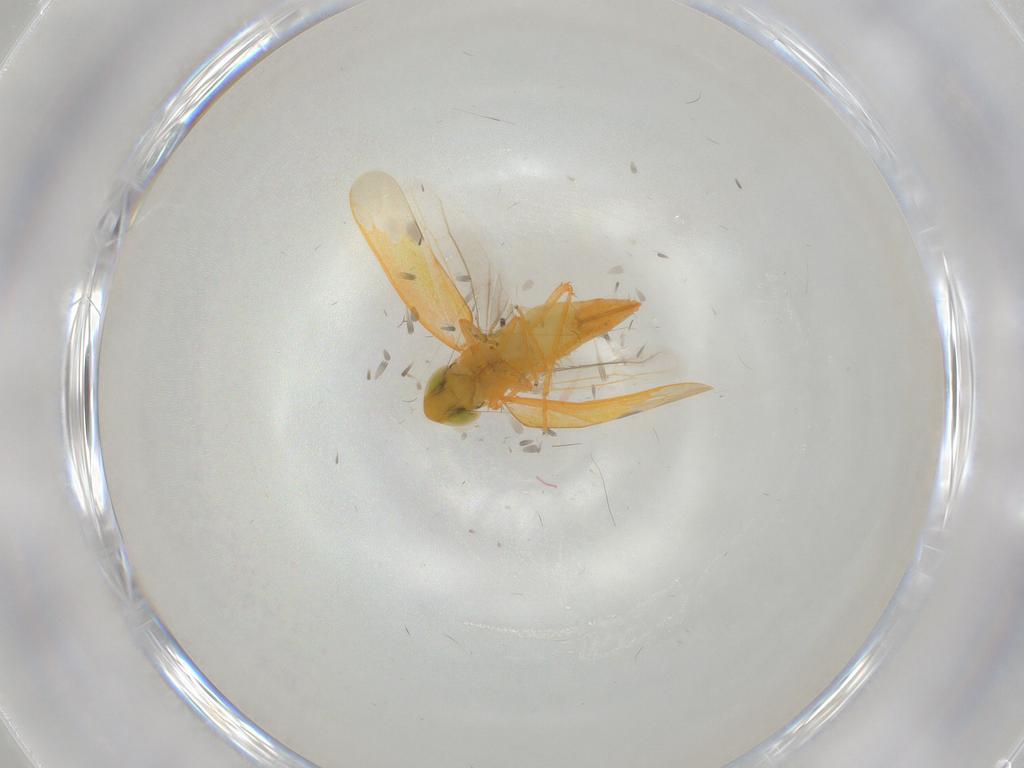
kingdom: Animalia
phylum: Arthropoda
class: Insecta
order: Hemiptera
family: Cicadellidae
